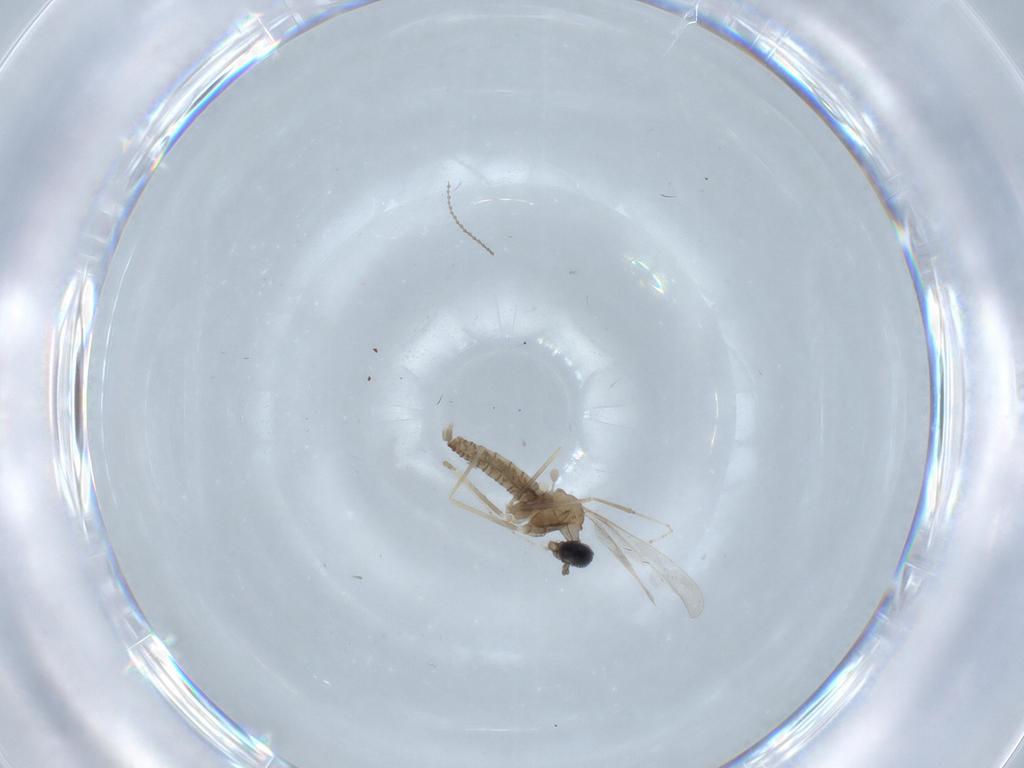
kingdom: Animalia
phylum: Arthropoda
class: Insecta
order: Diptera
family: Cecidomyiidae
